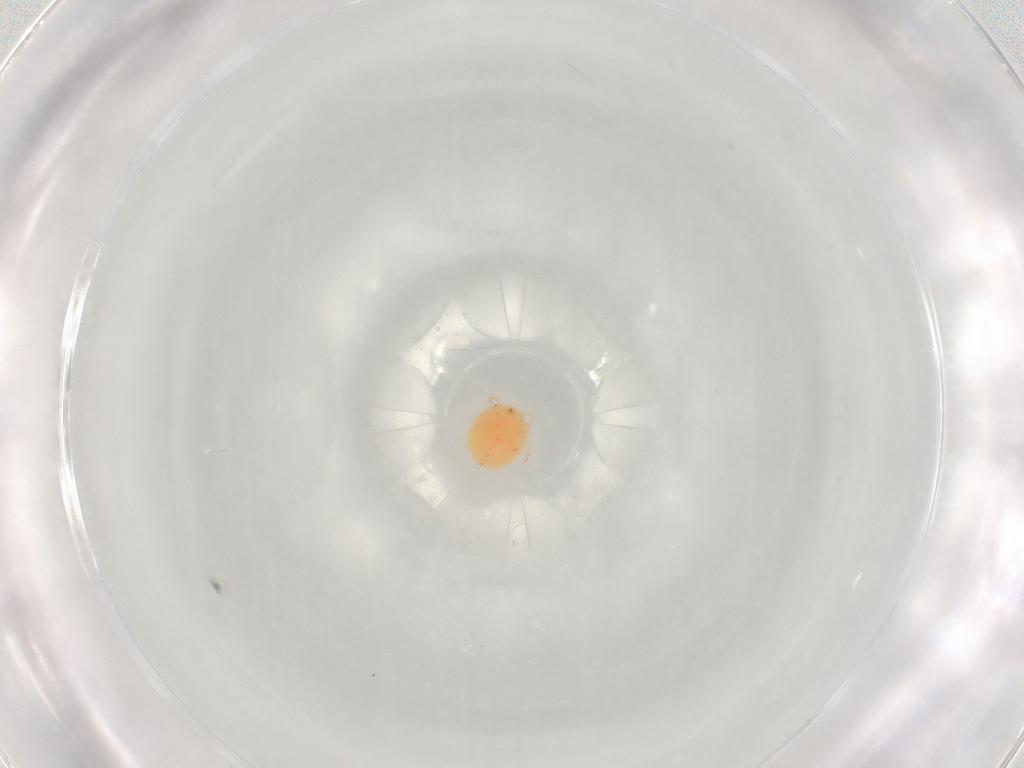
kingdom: Animalia
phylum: Arthropoda
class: Arachnida
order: Trombidiformes
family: Hydryphantidae
